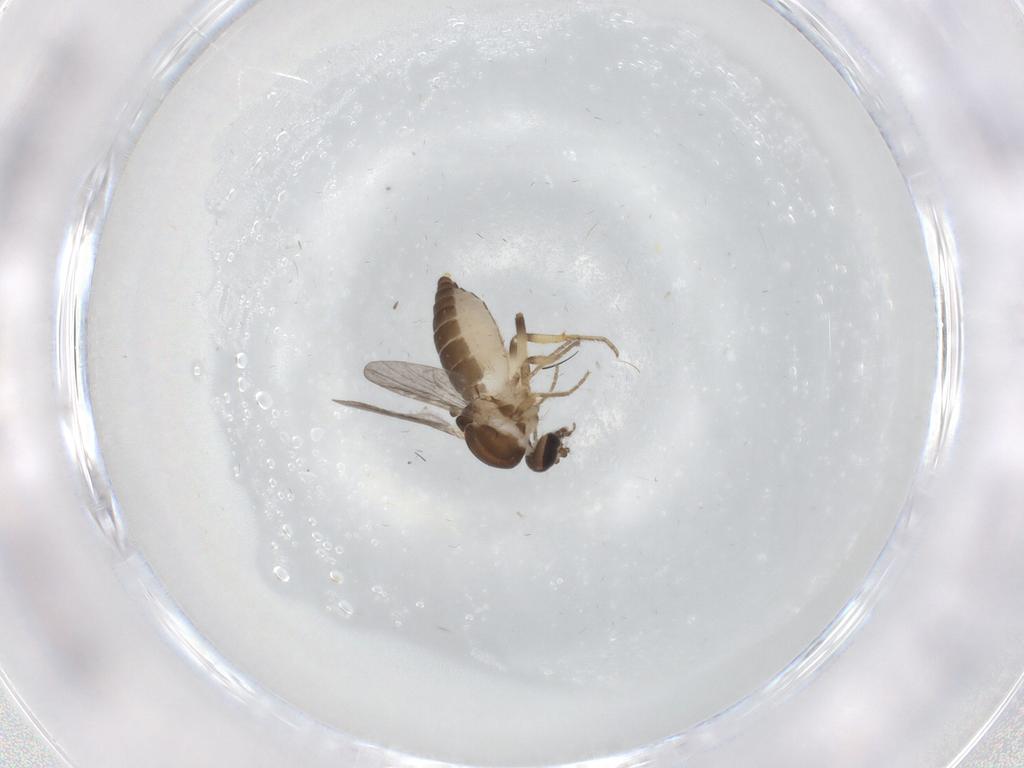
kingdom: Animalia
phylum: Arthropoda
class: Insecta
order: Diptera
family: Ceratopogonidae
